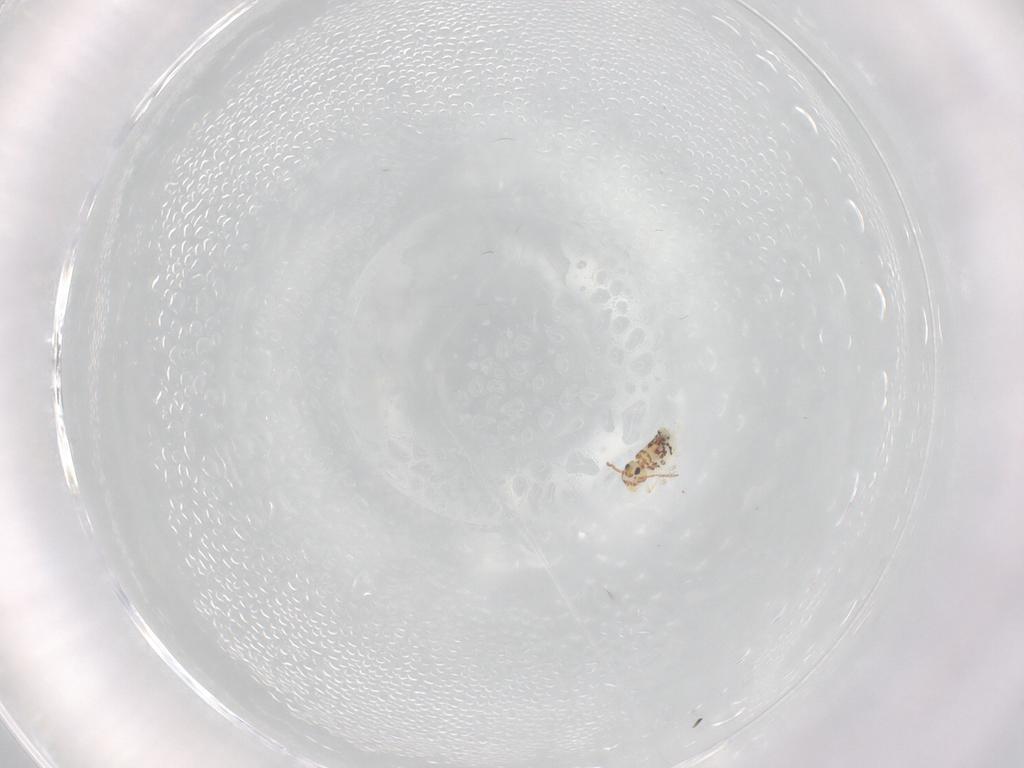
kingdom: Animalia
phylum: Arthropoda
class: Collembola
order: Symphypleona
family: Bourletiellidae
